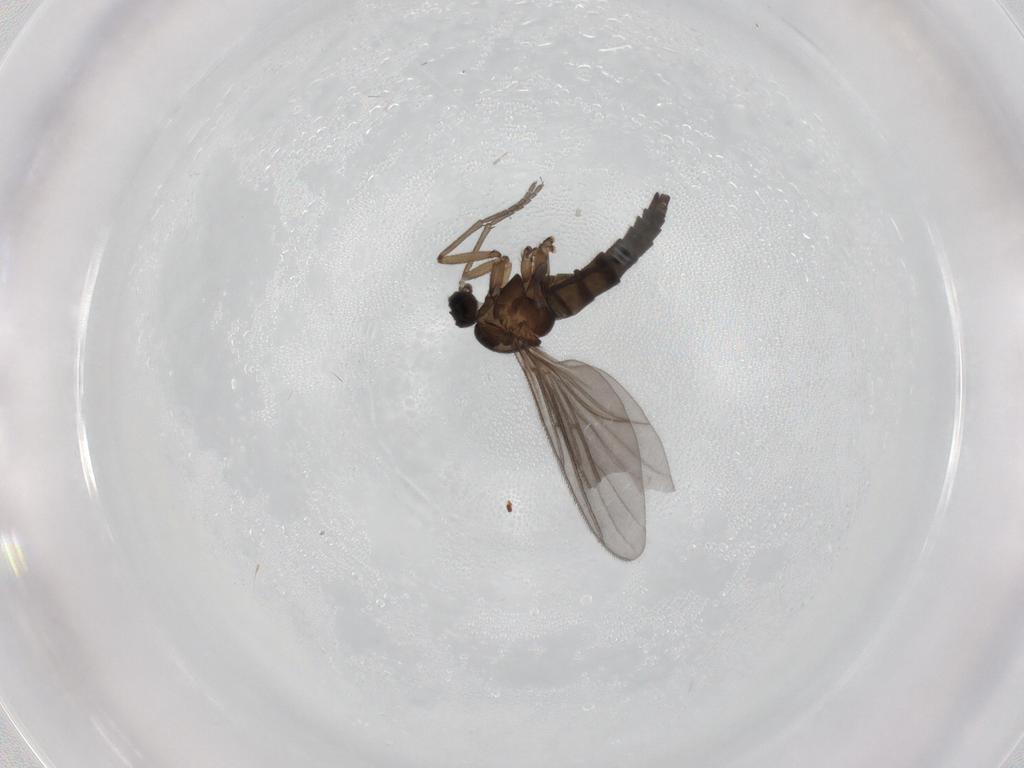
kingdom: Animalia
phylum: Arthropoda
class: Insecta
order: Diptera
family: Sciaridae
